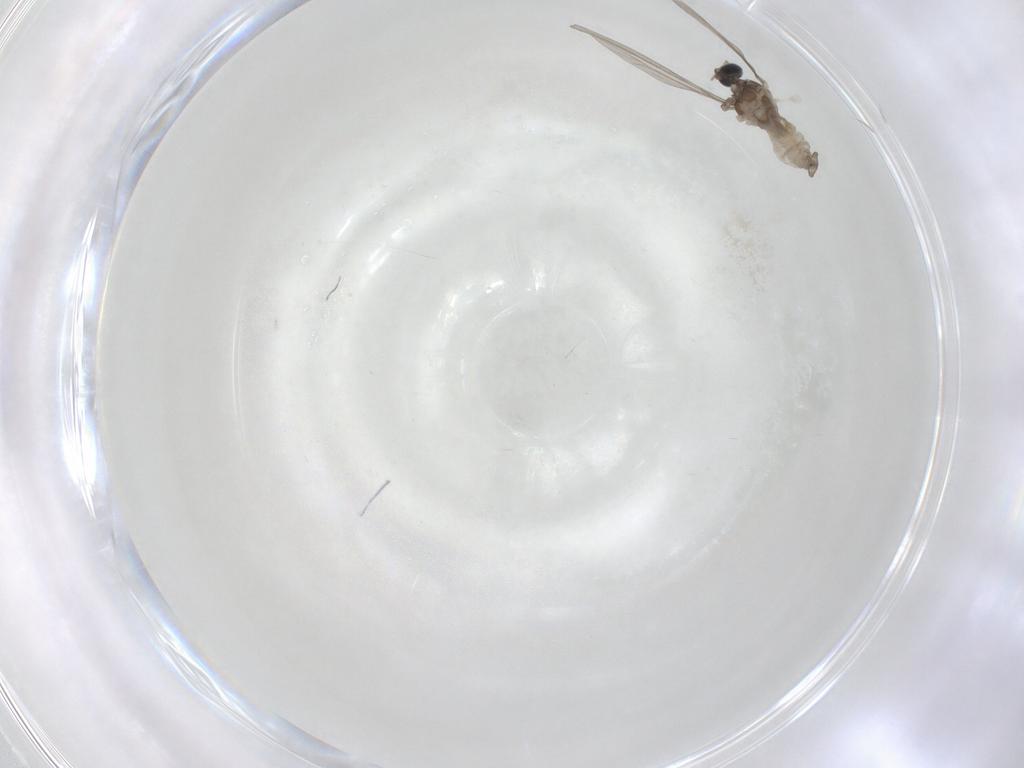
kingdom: Animalia
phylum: Arthropoda
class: Insecta
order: Diptera
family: Cecidomyiidae
